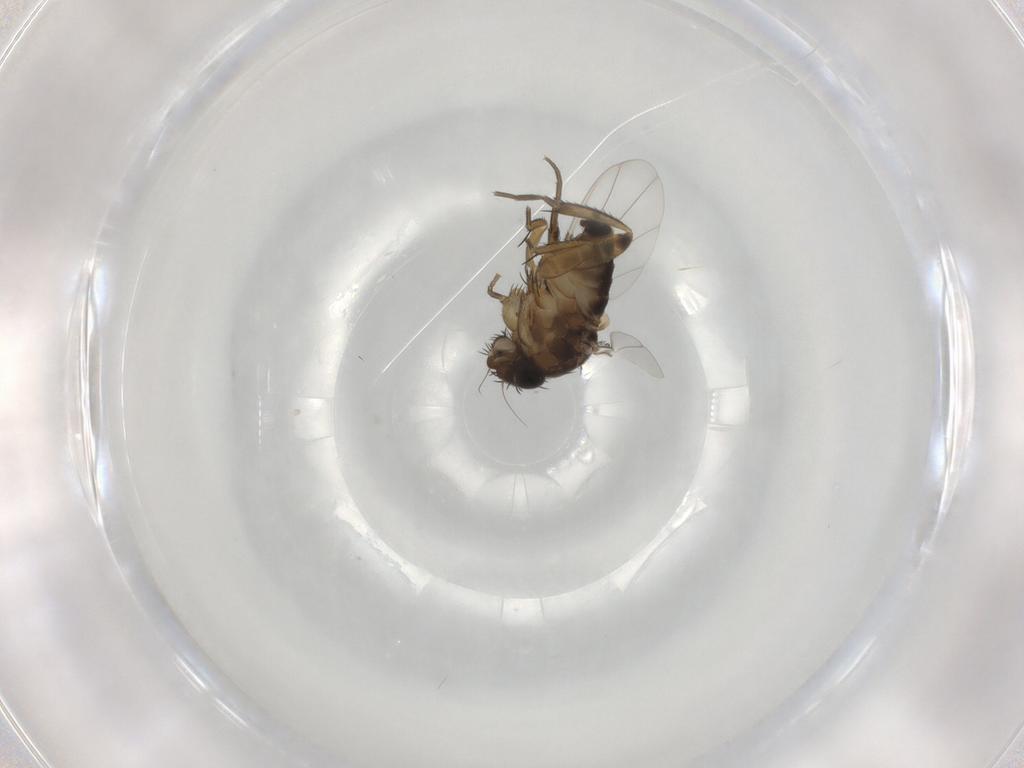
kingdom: Animalia
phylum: Arthropoda
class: Insecta
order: Diptera
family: Phoridae
